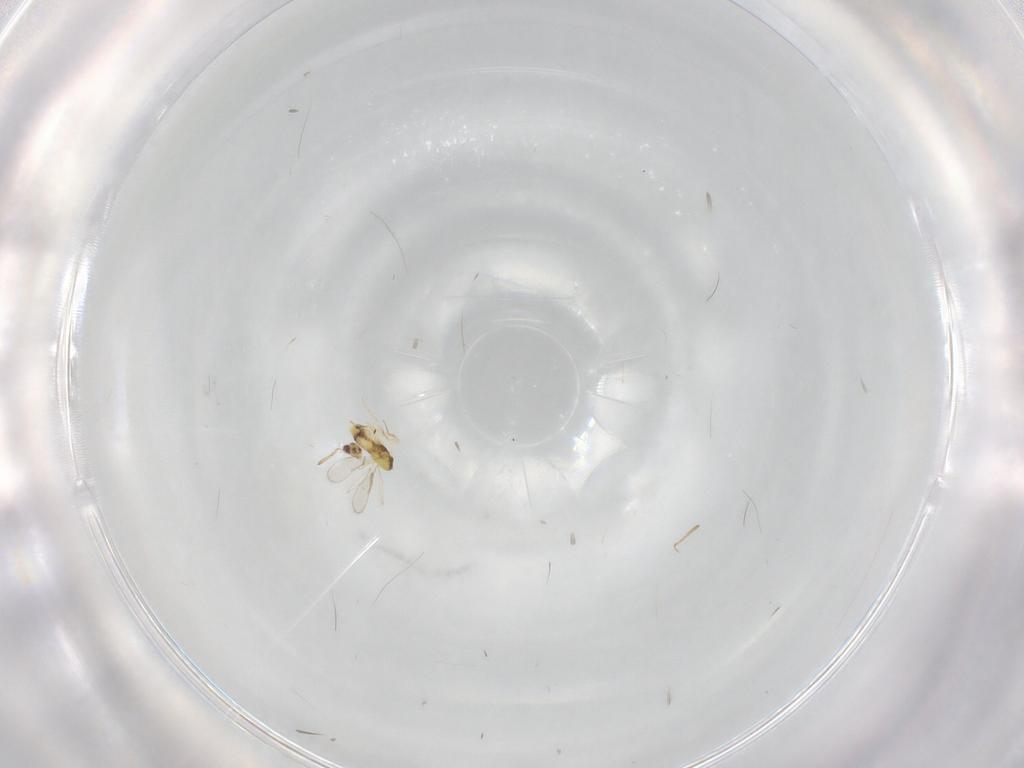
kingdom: Animalia
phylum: Arthropoda
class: Insecta
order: Hymenoptera
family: Aphelinidae
